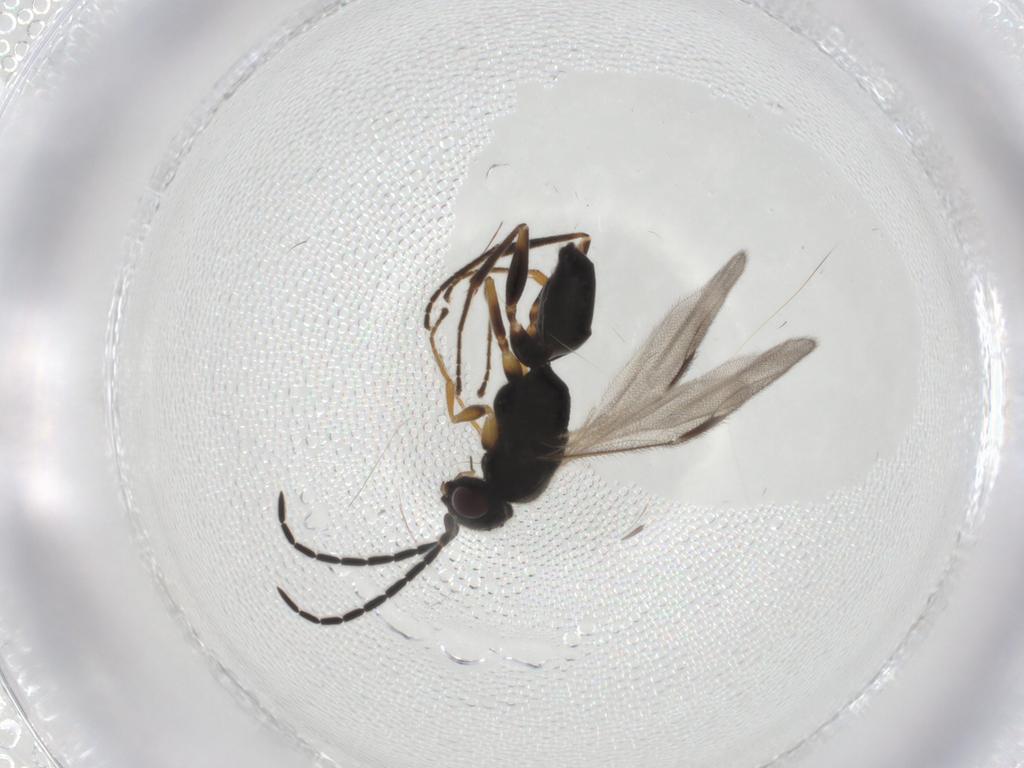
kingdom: Animalia
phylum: Arthropoda
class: Insecta
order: Hymenoptera
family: Dryinidae
